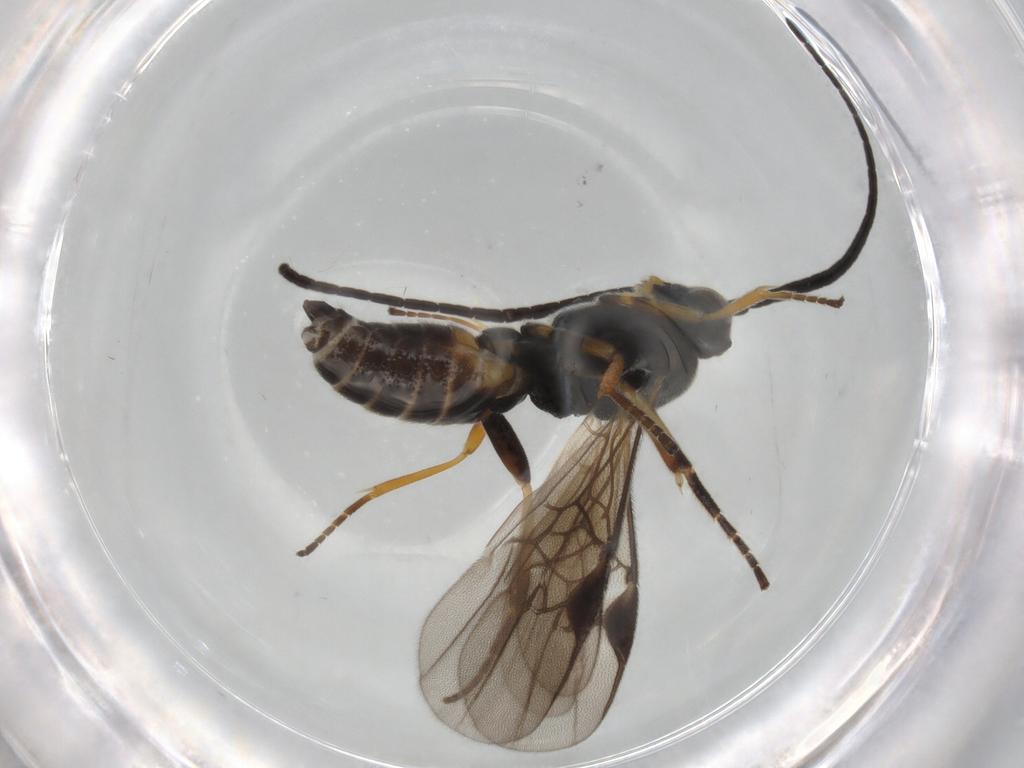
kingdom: Animalia
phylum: Arthropoda
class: Insecta
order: Hymenoptera
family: Braconidae
